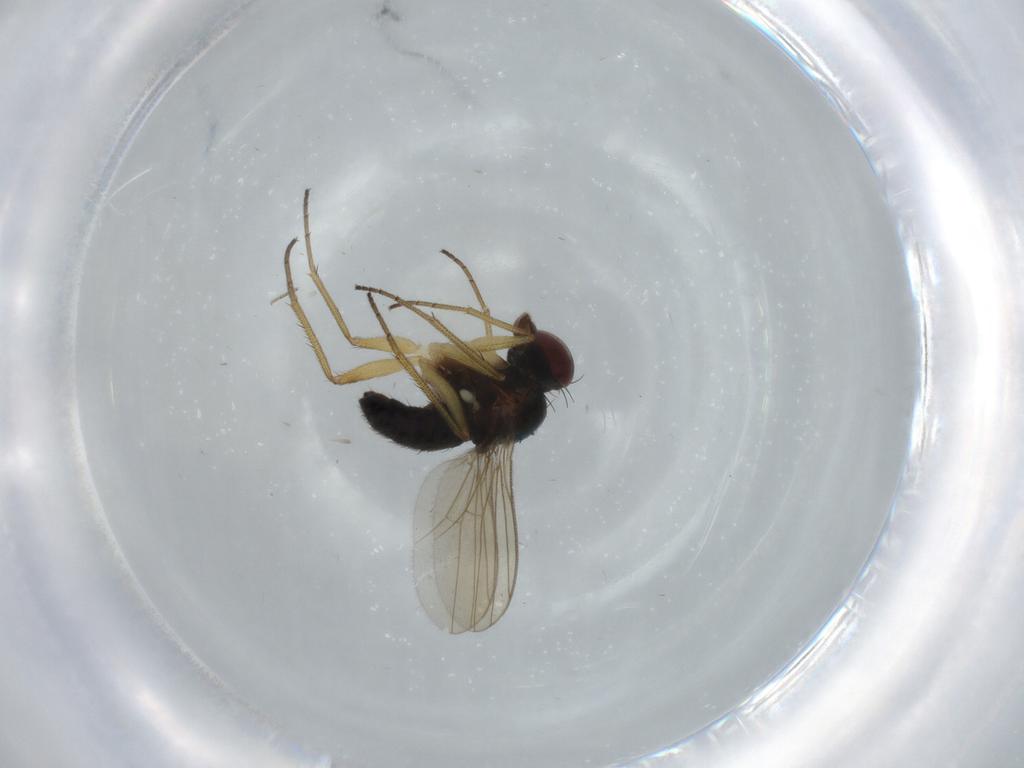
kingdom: Animalia
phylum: Arthropoda
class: Insecta
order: Diptera
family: Dolichopodidae
